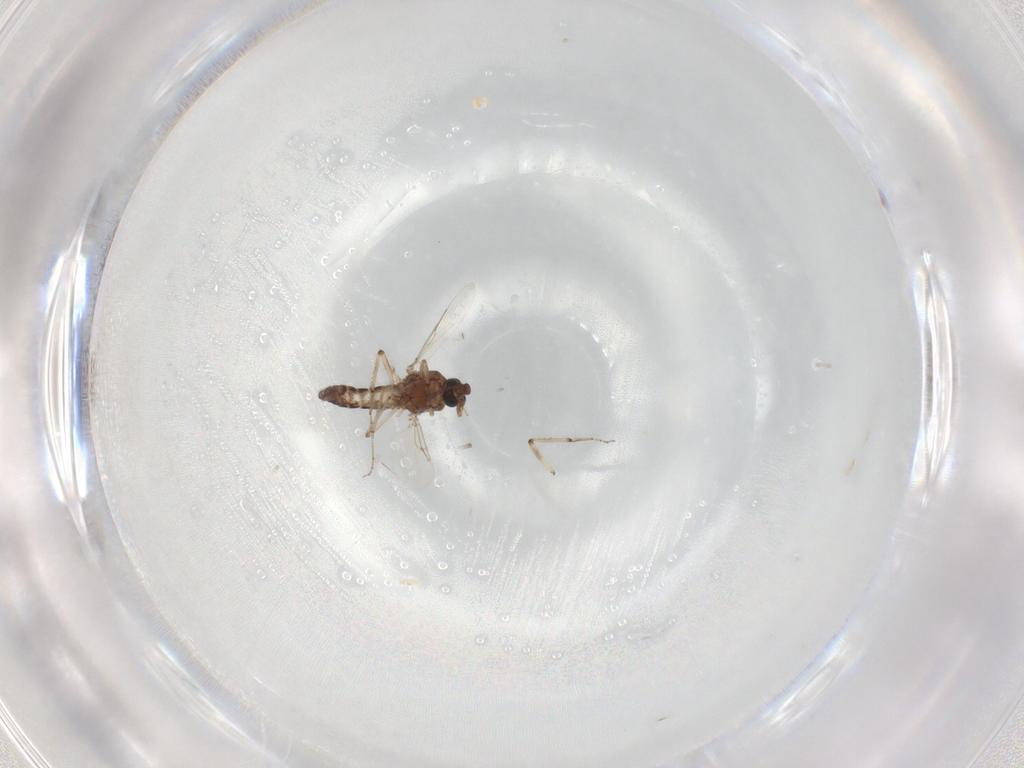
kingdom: Animalia
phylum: Arthropoda
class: Insecta
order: Diptera
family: Ceratopogonidae
